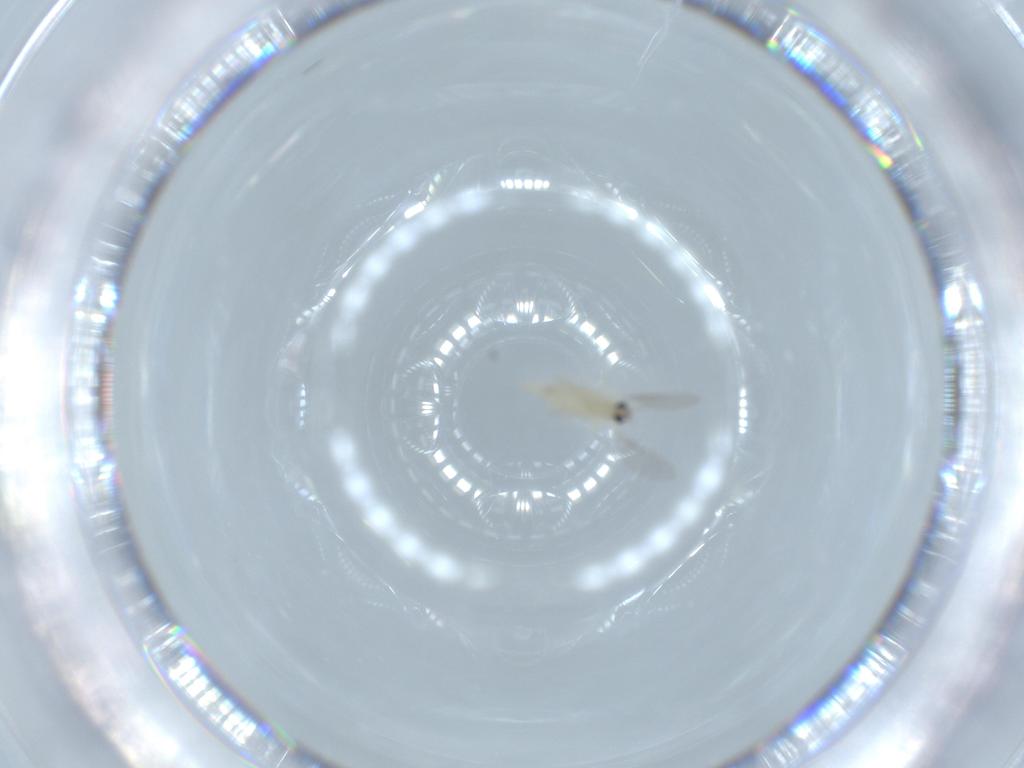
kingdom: Animalia
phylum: Arthropoda
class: Insecta
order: Diptera
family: Cecidomyiidae
